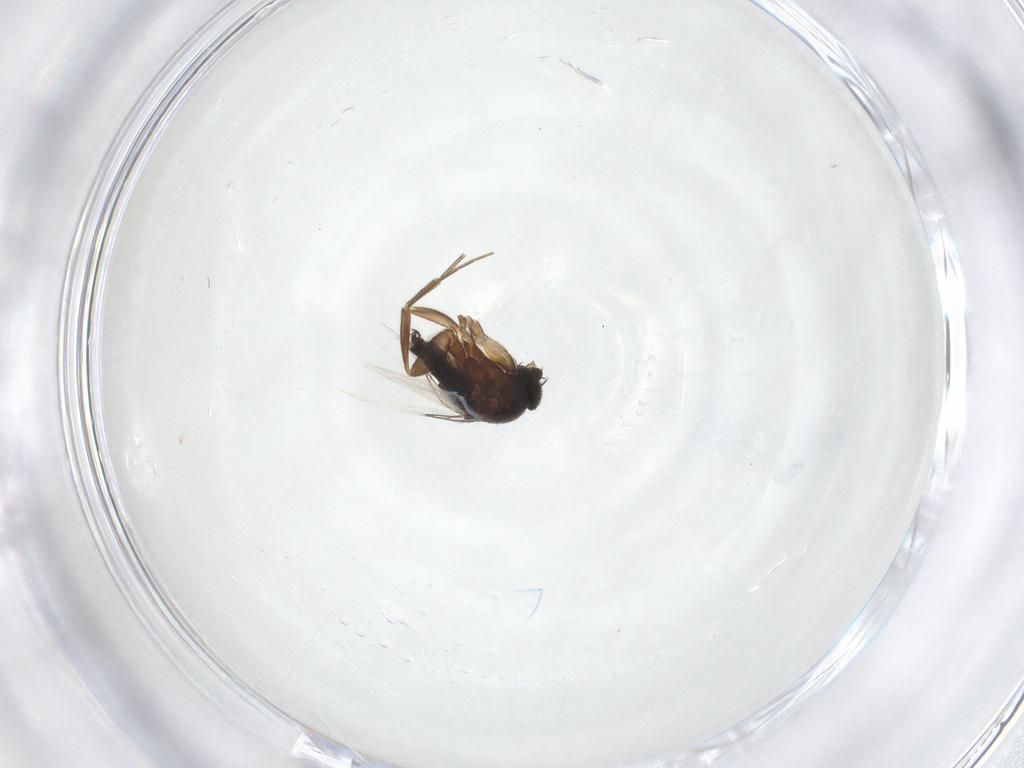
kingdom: Animalia
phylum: Arthropoda
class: Insecta
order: Diptera
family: Phoridae
